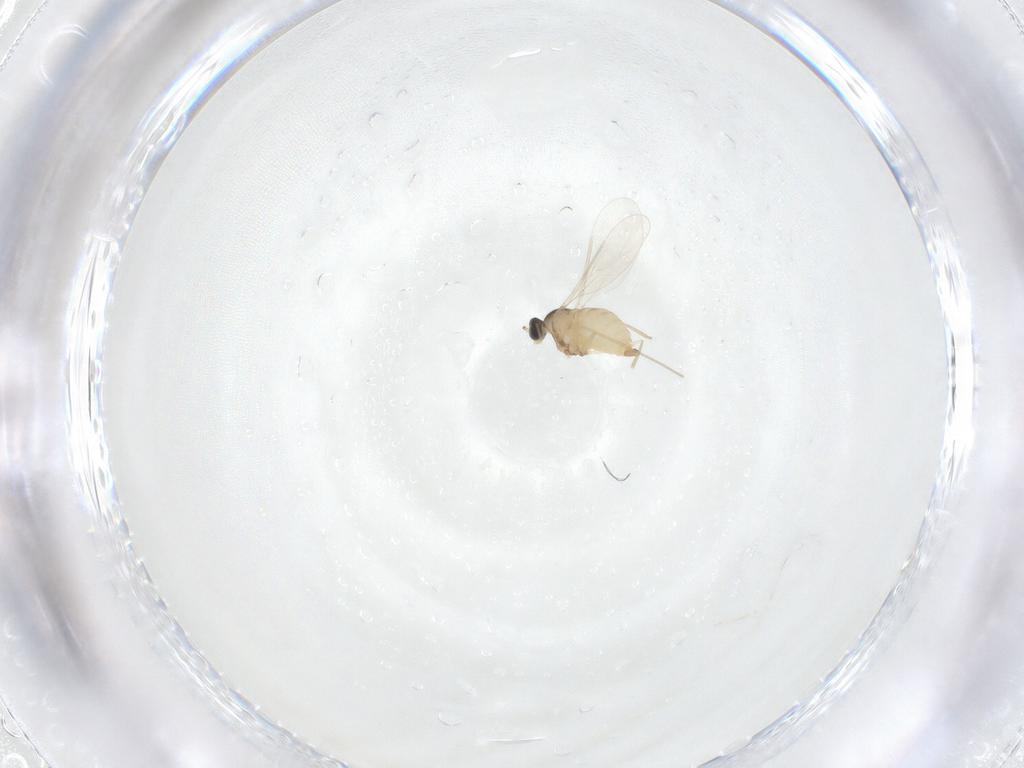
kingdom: Animalia
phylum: Arthropoda
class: Insecta
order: Diptera
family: Cecidomyiidae
